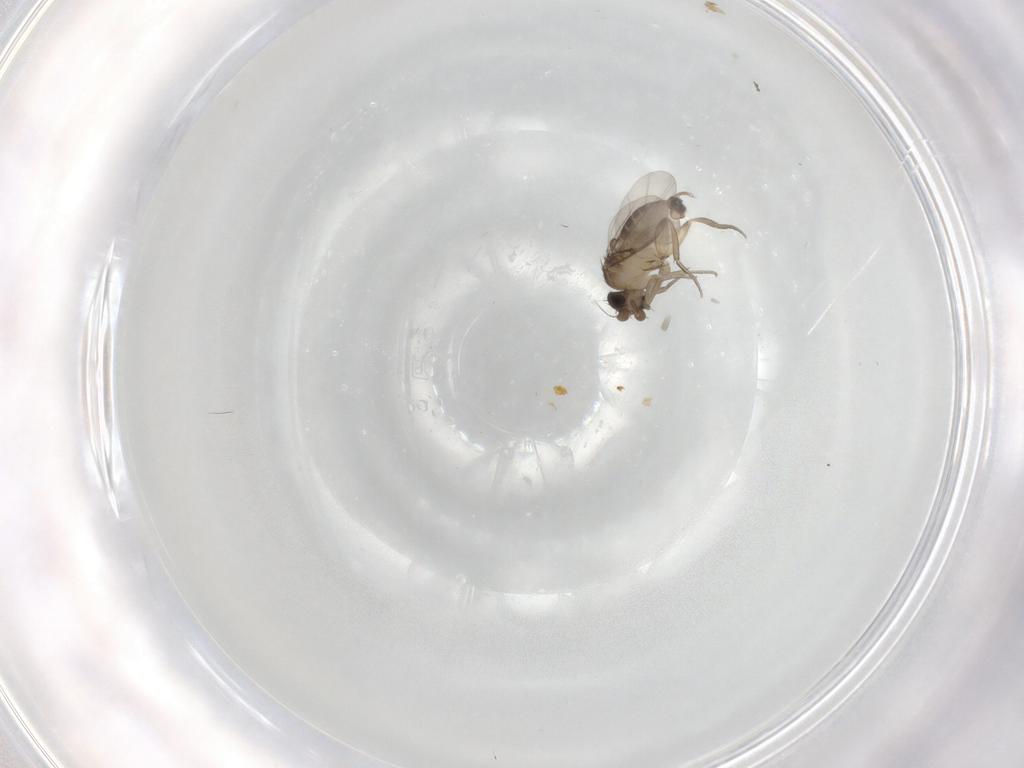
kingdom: Animalia
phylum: Arthropoda
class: Insecta
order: Diptera
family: Phoridae
